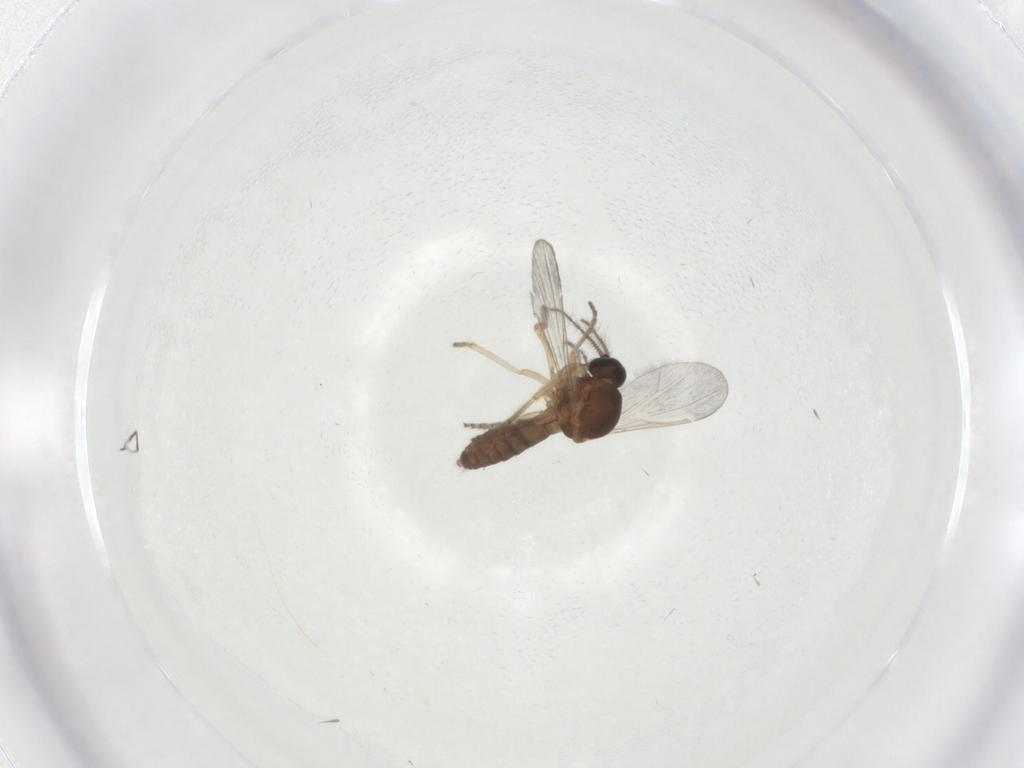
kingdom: Animalia
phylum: Arthropoda
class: Insecta
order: Diptera
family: Ceratopogonidae
